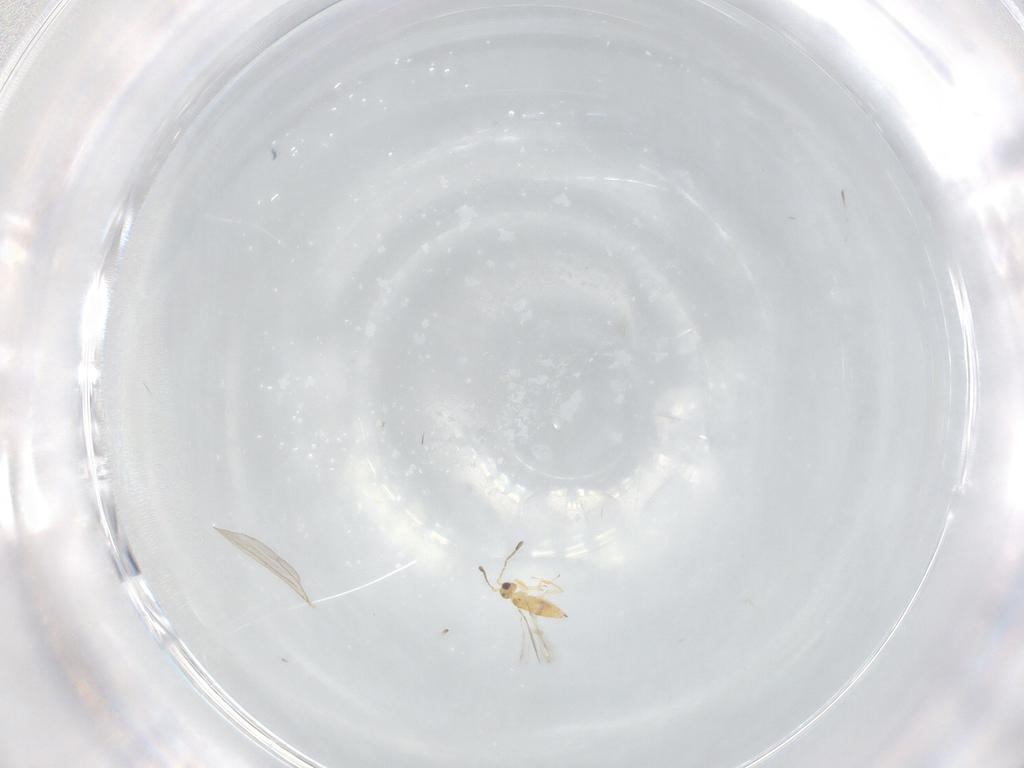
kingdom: Animalia
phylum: Arthropoda
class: Insecta
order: Hymenoptera
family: Mymaridae
